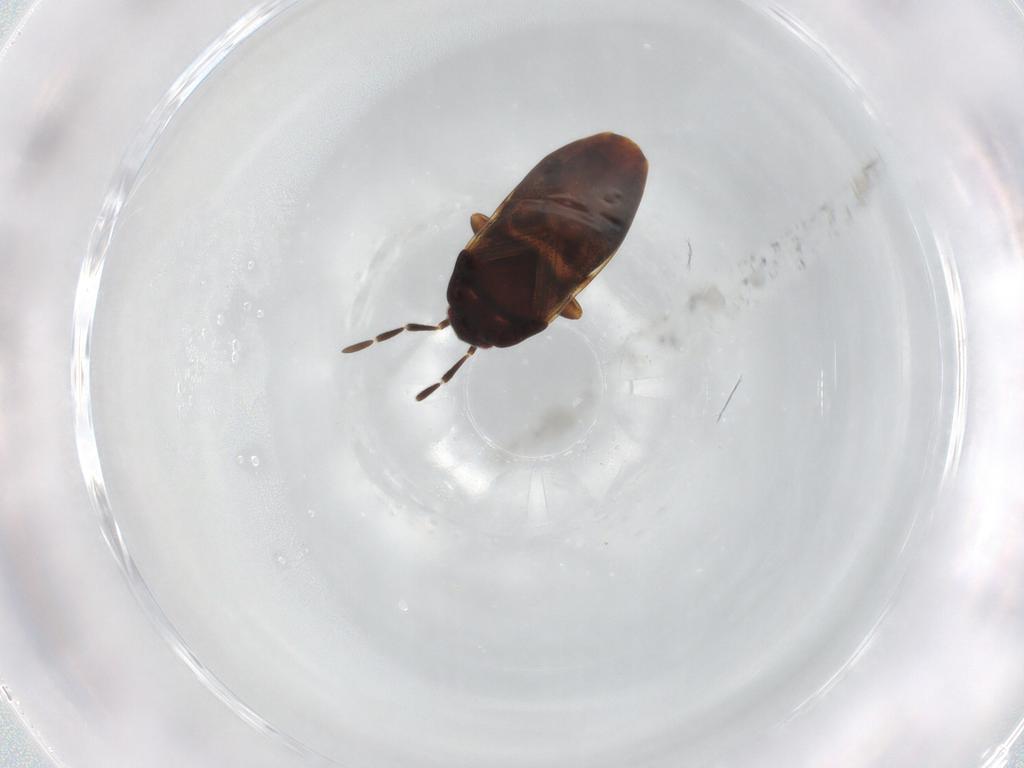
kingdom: Animalia
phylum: Arthropoda
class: Insecta
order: Hemiptera
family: Rhyparochromidae
